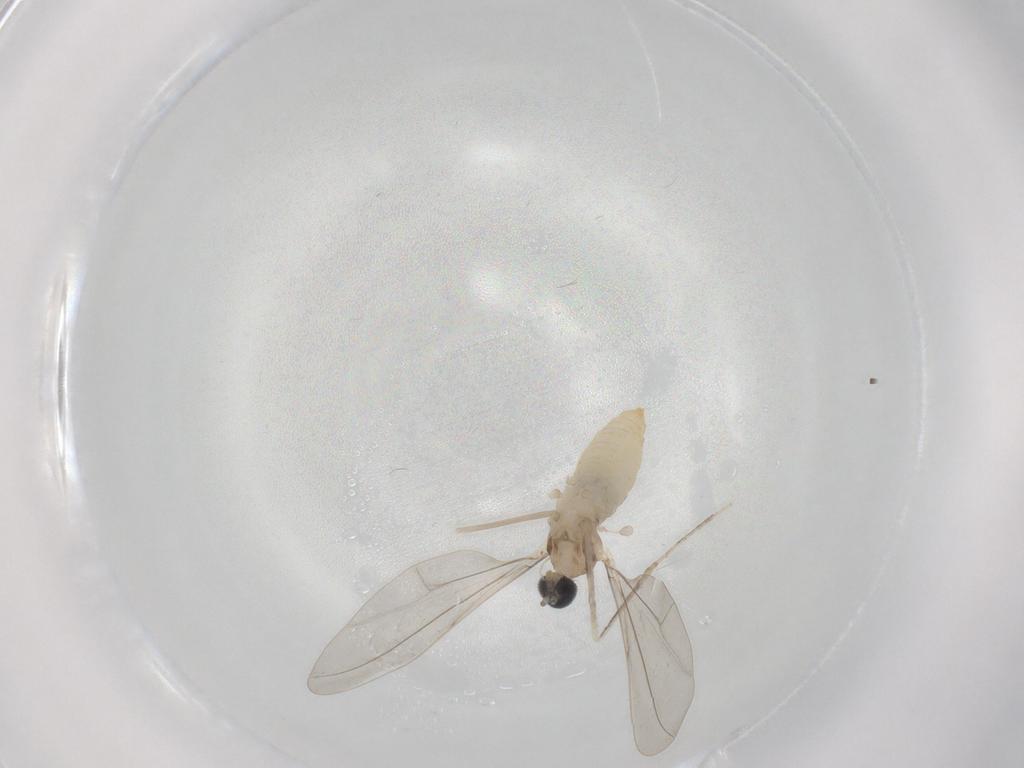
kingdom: Animalia
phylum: Arthropoda
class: Insecta
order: Diptera
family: Cecidomyiidae
